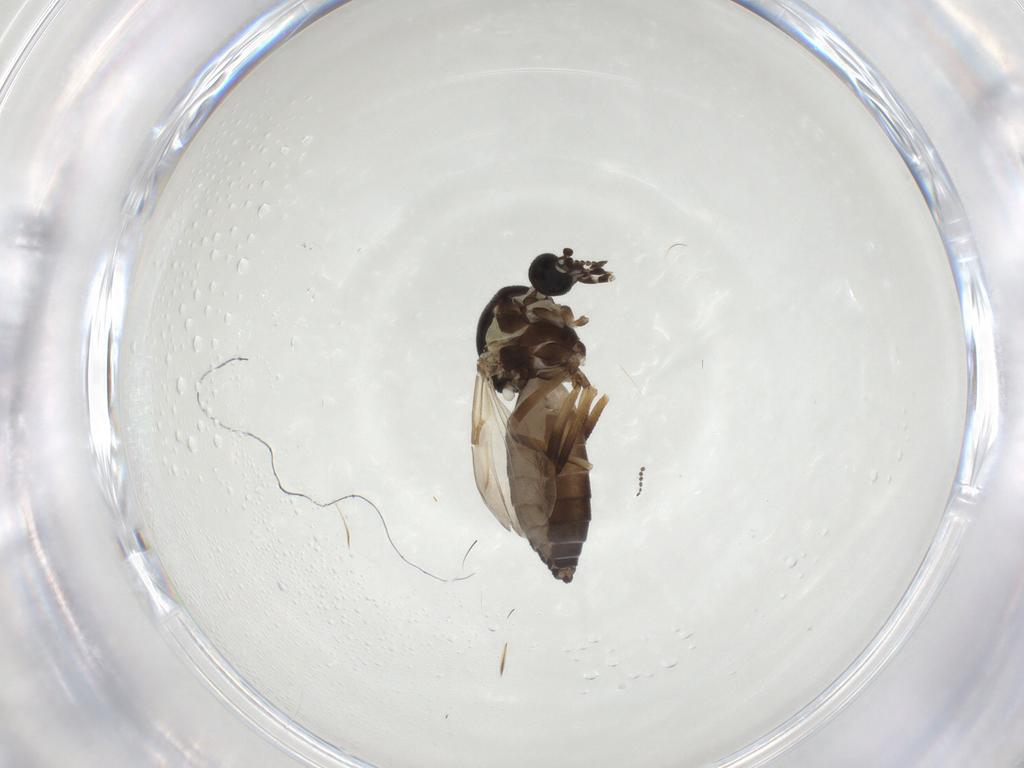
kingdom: Animalia
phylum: Arthropoda
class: Insecta
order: Diptera
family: Ceratopogonidae
